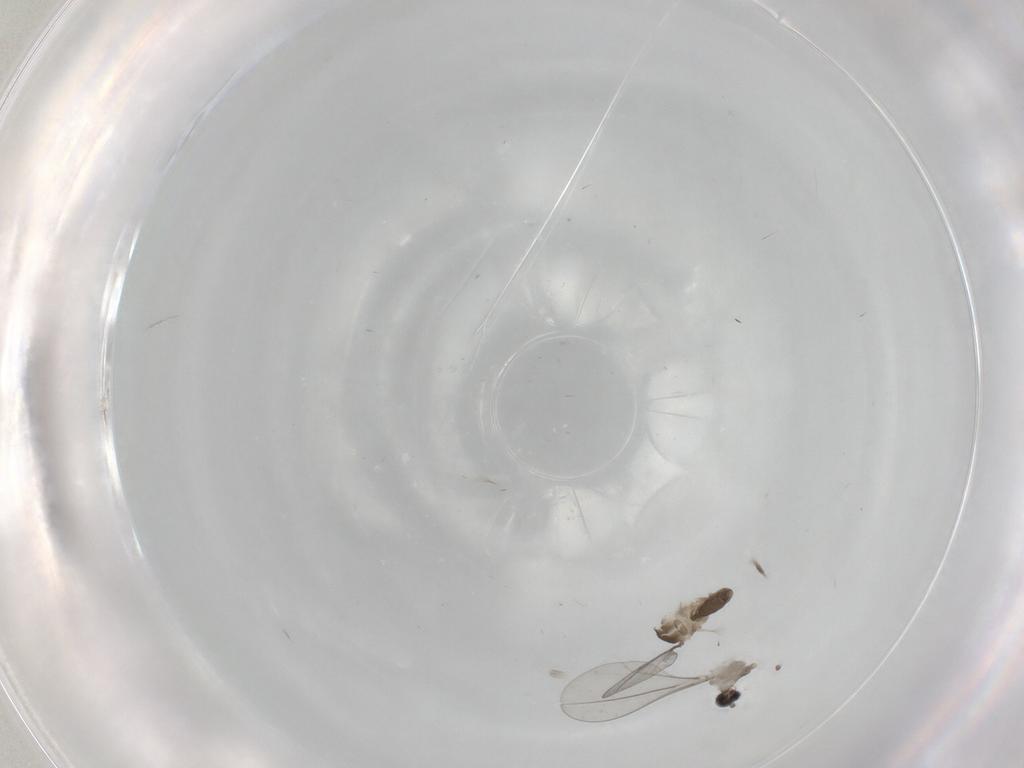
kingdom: Animalia
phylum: Arthropoda
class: Insecta
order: Diptera
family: Cecidomyiidae
